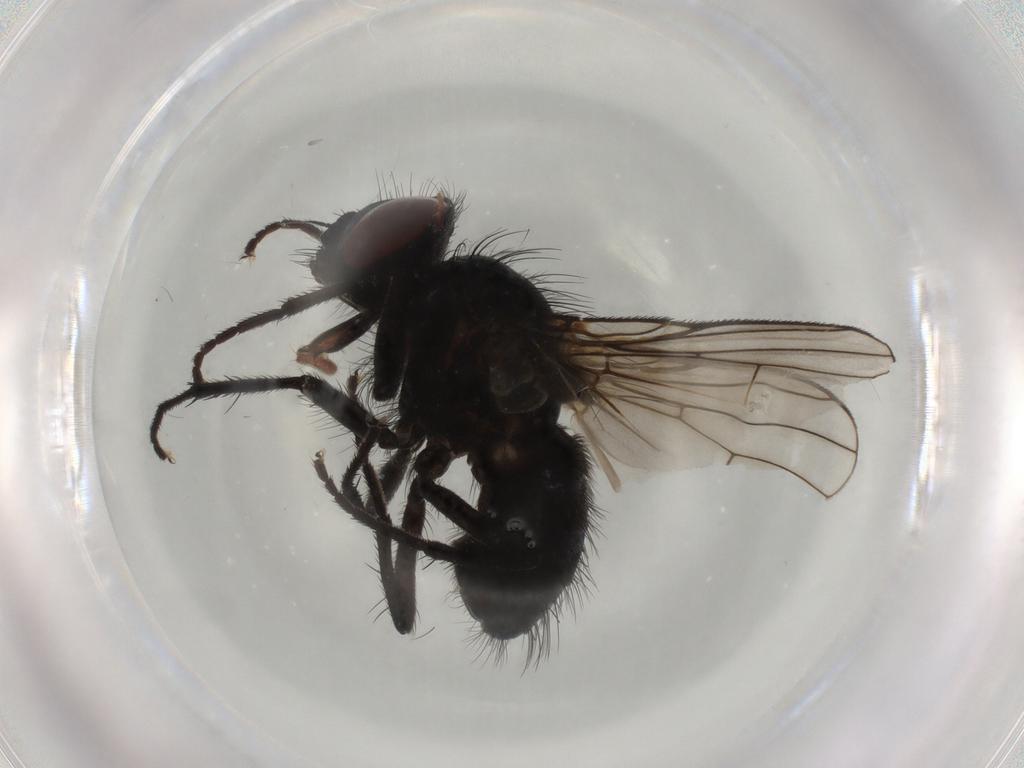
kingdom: Animalia
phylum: Arthropoda
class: Insecta
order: Diptera
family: Muscidae
